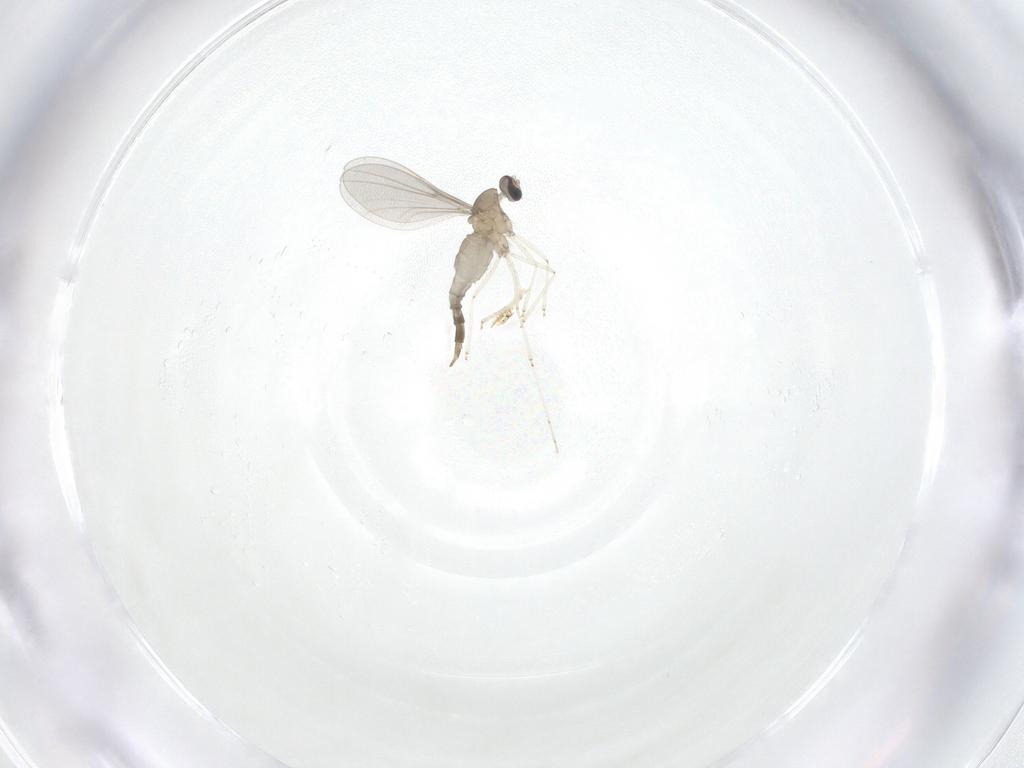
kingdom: Animalia
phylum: Arthropoda
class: Insecta
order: Diptera
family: Cecidomyiidae
